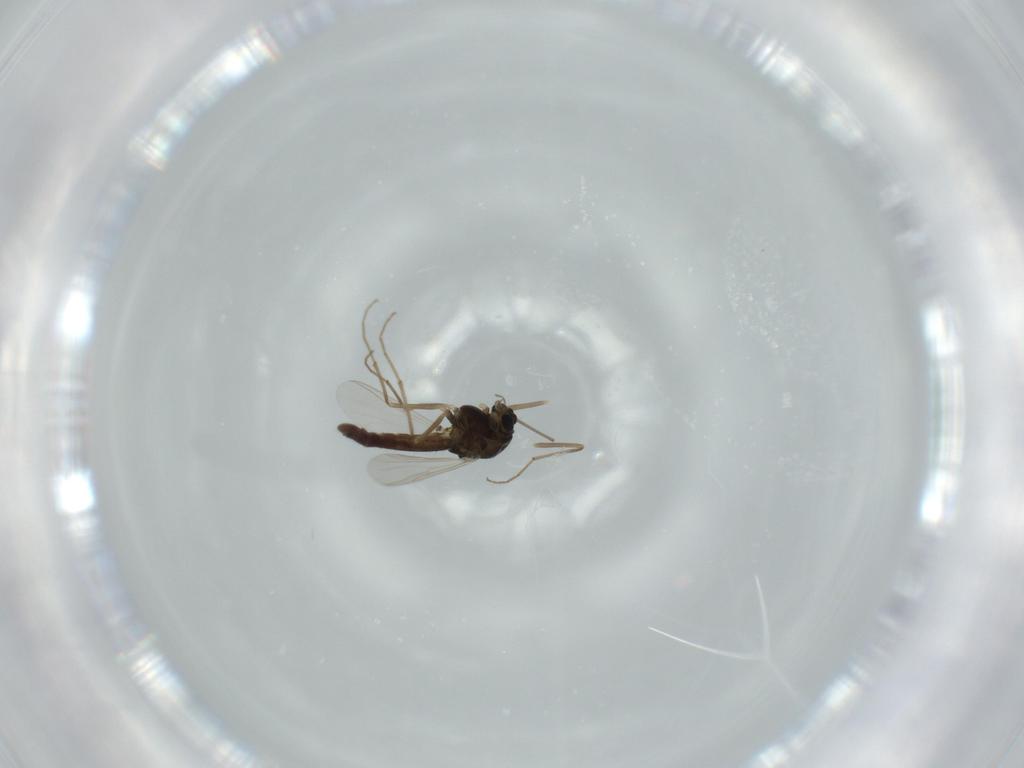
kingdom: Animalia
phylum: Arthropoda
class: Insecta
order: Diptera
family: Chironomidae
